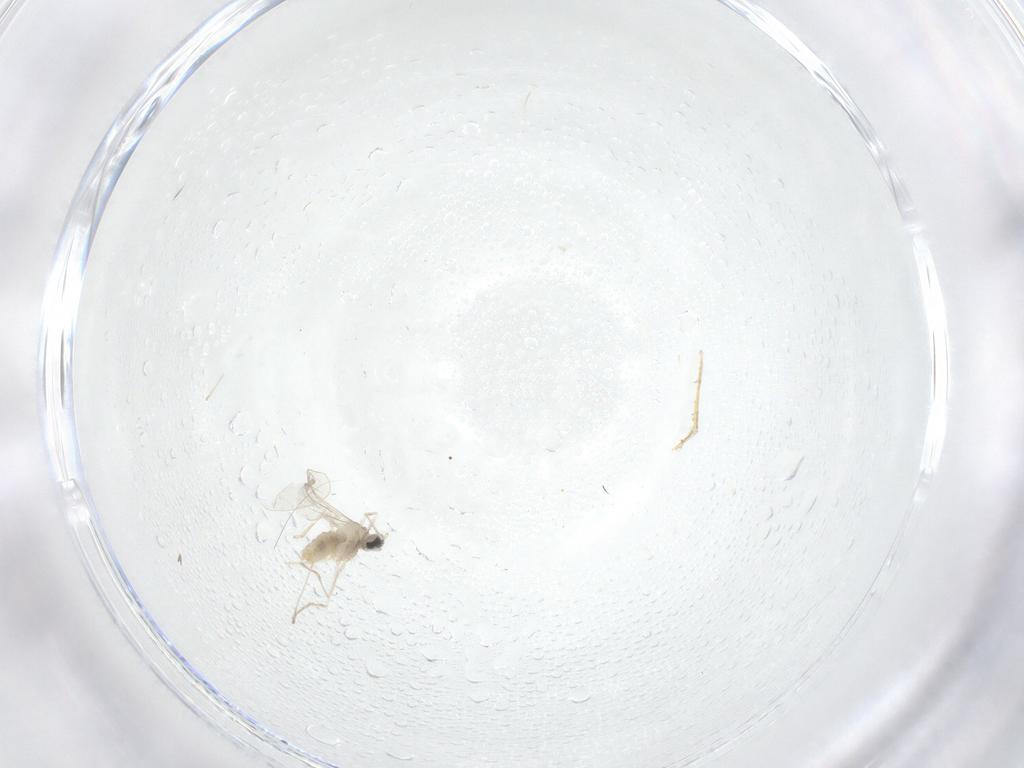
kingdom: Animalia
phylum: Arthropoda
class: Insecta
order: Diptera
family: Cecidomyiidae
